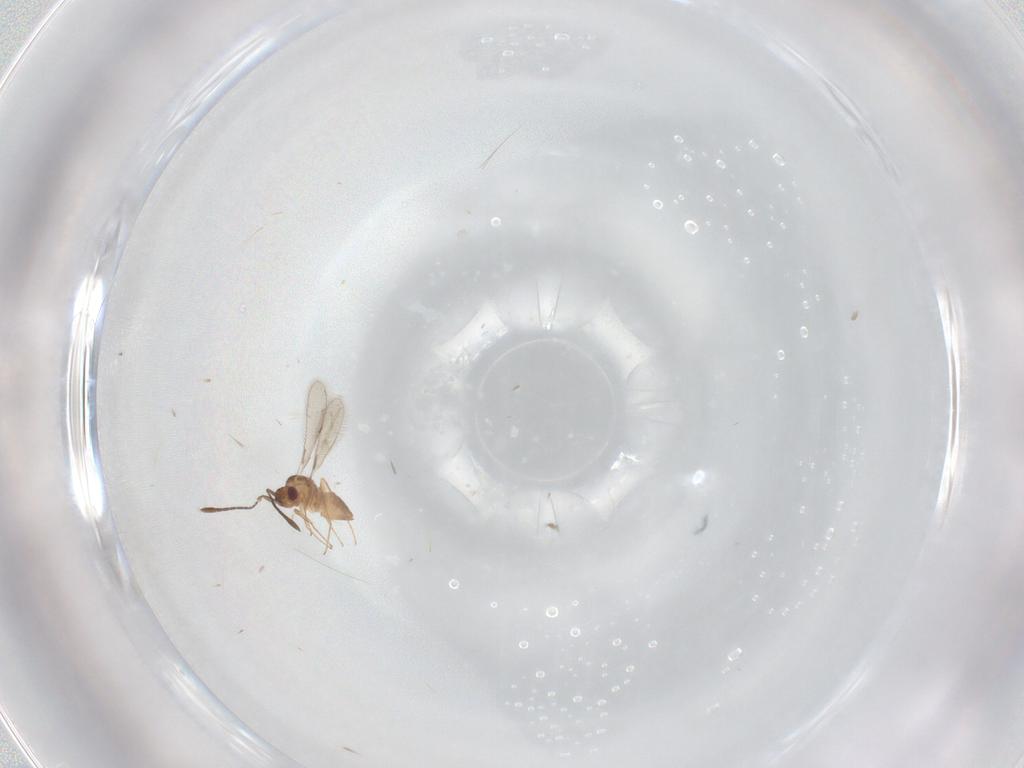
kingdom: Animalia
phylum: Arthropoda
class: Insecta
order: Hymenoptera
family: Mymaridae
